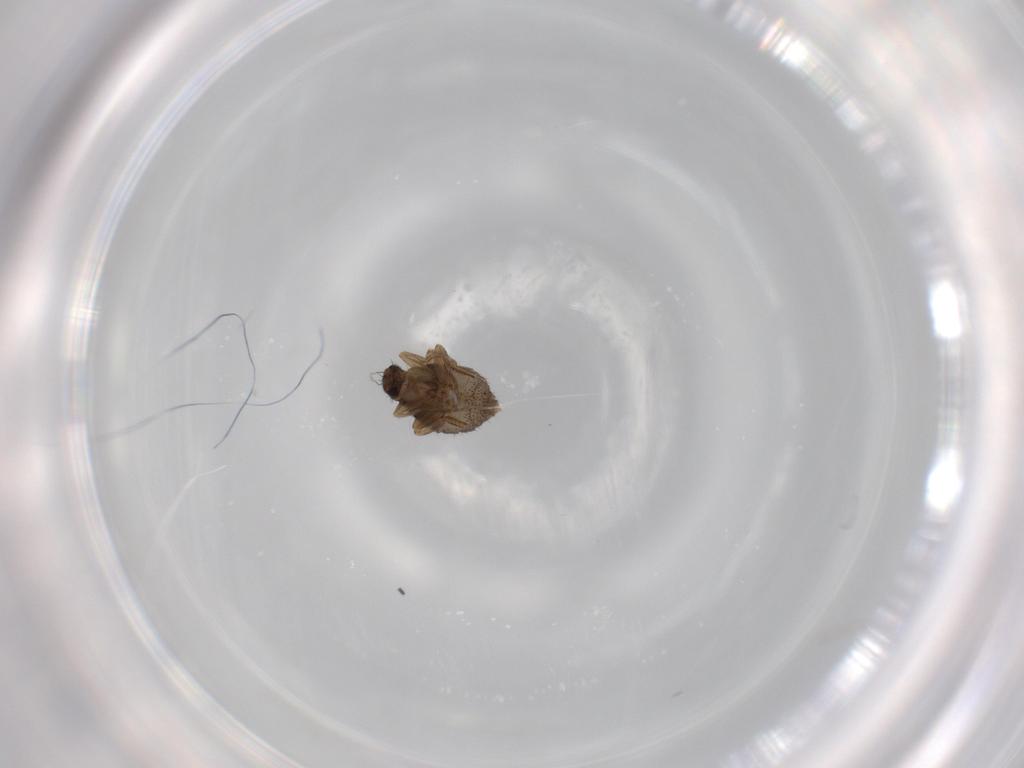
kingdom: Animalia
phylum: Arthropoda
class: Insecta
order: Diptera
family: Phoridae
